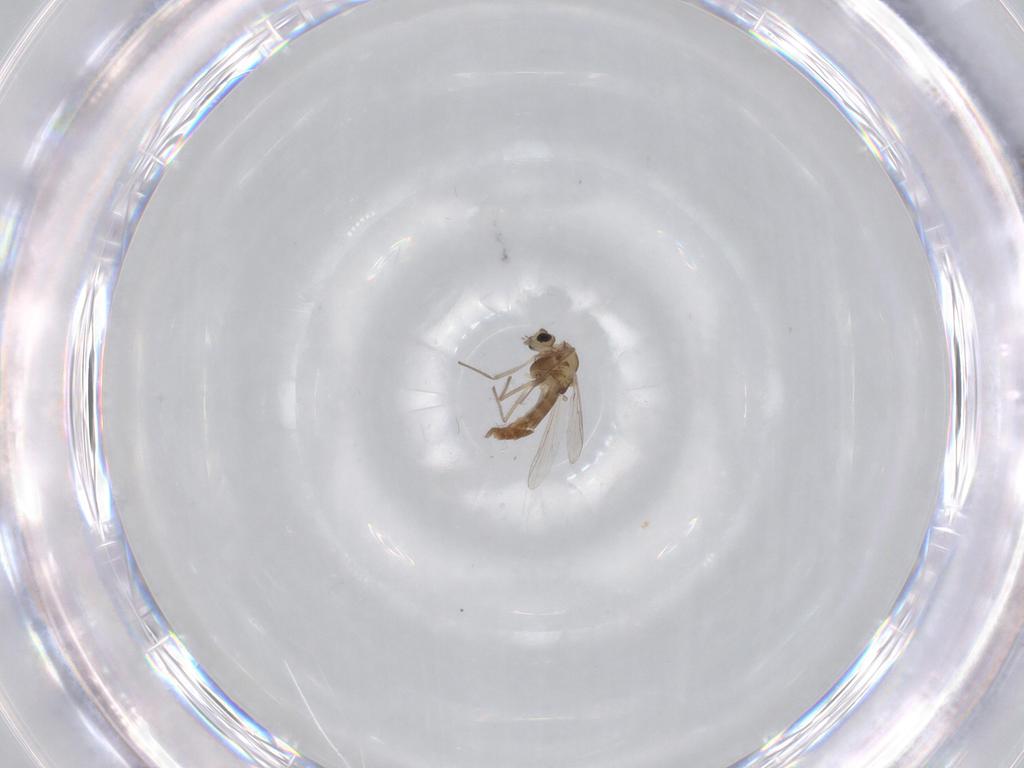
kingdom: Animalia
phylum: Arthropoda
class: Insecta
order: Diptera
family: Chironomidae
